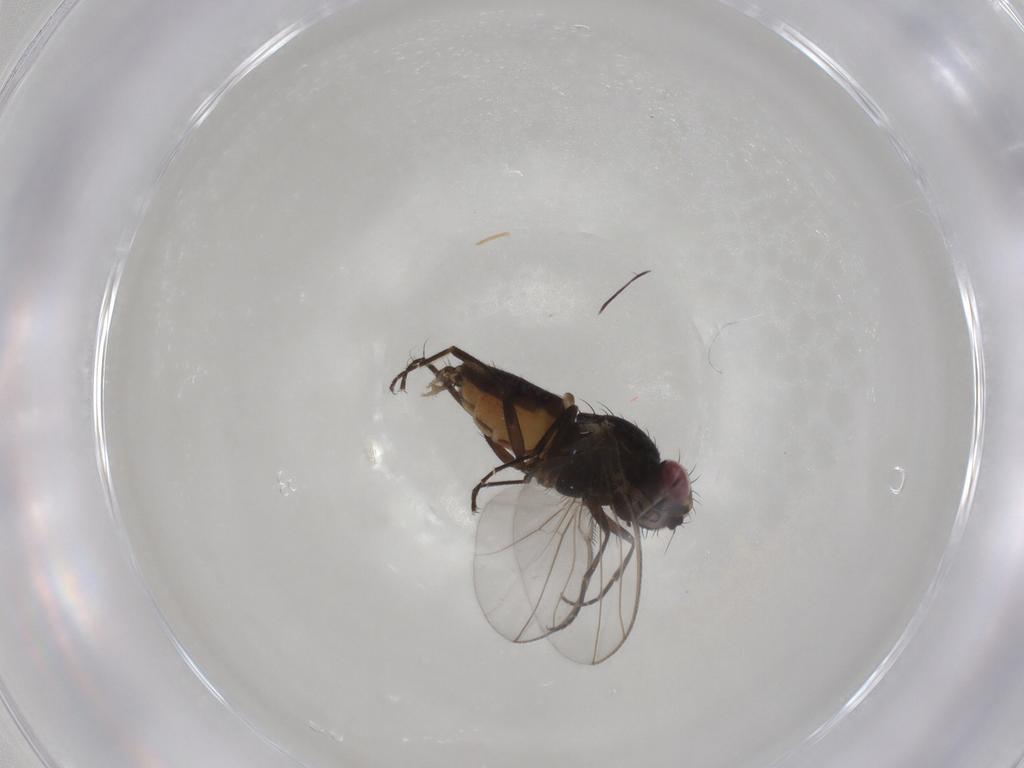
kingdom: Animalia
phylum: Arthropoda
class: Insecta
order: Diptera
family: Carnidae
